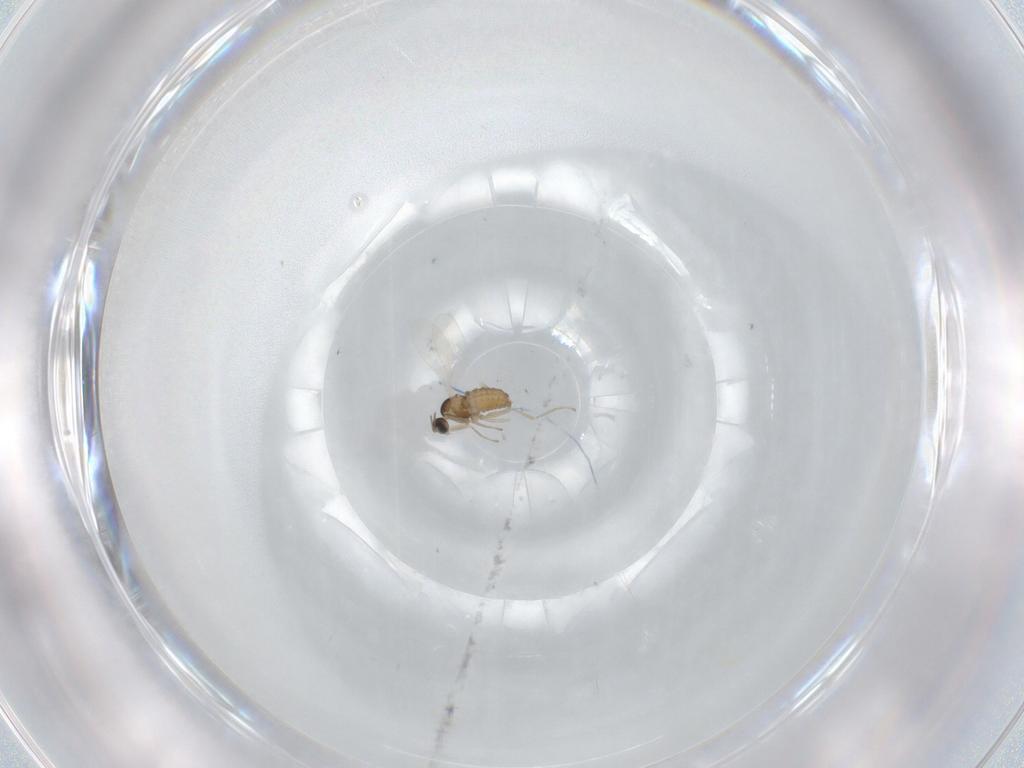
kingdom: Animalia
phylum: Arthropoda
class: Insecta
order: Diptera
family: Cecidomyiidae
